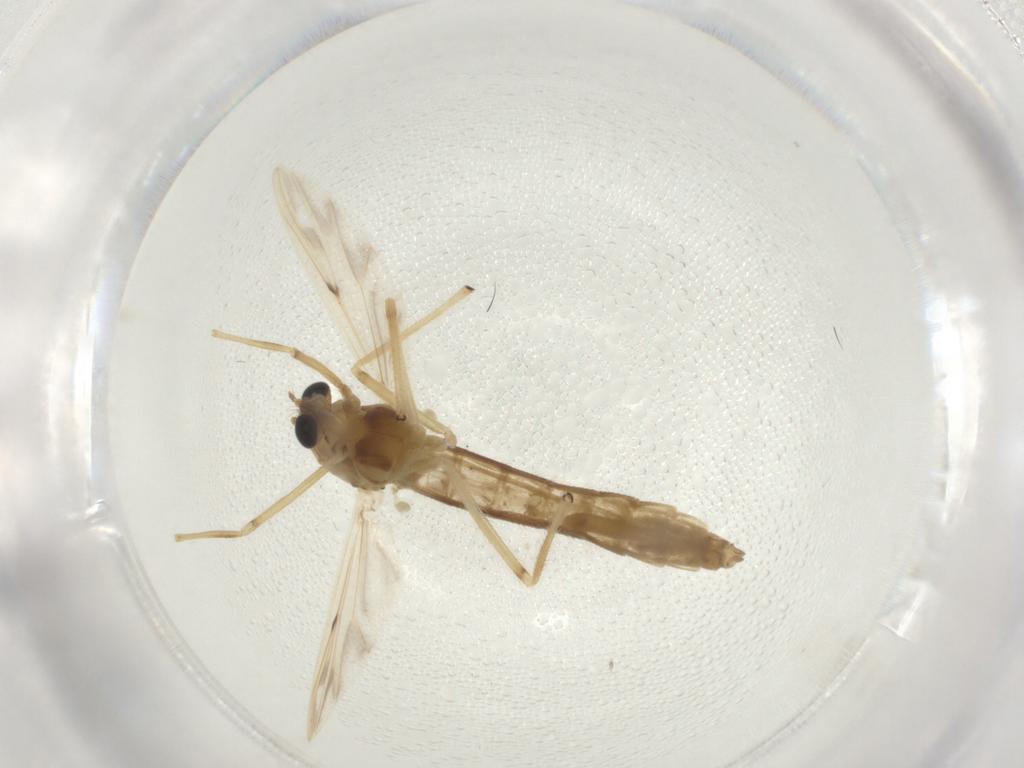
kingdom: Animalia
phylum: Arthropoda
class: Insecta
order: Diptera
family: Chironomidae
